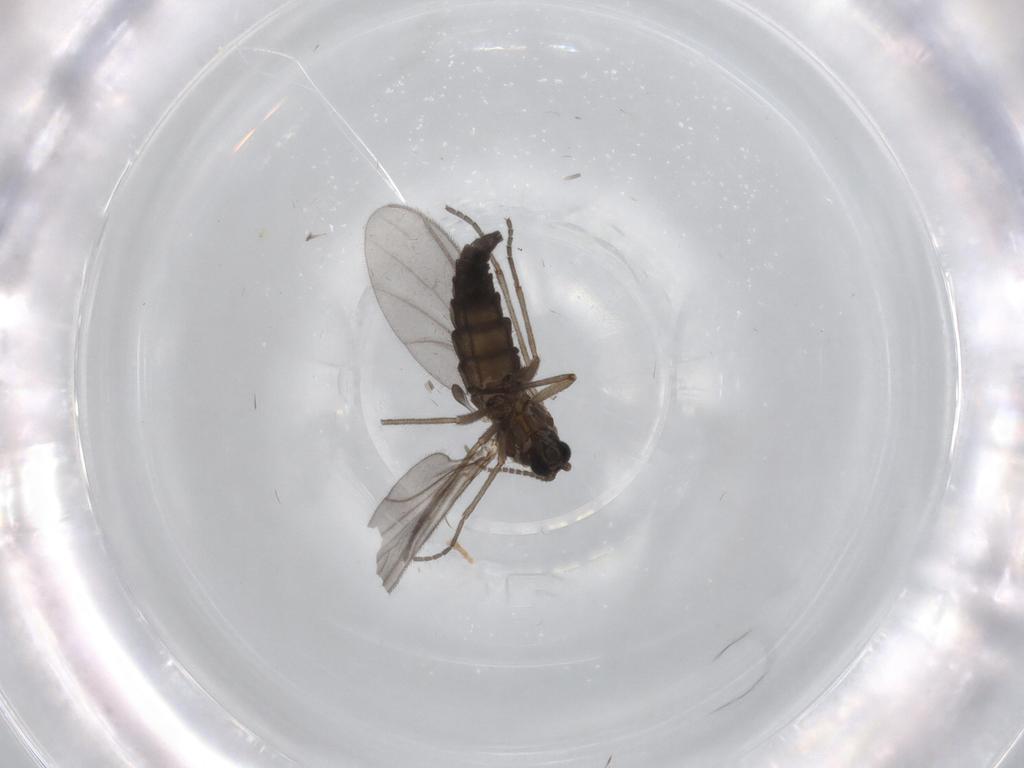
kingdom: Animalia
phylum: Arthropoda
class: Insecta
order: Diptera
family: Sciaridae
